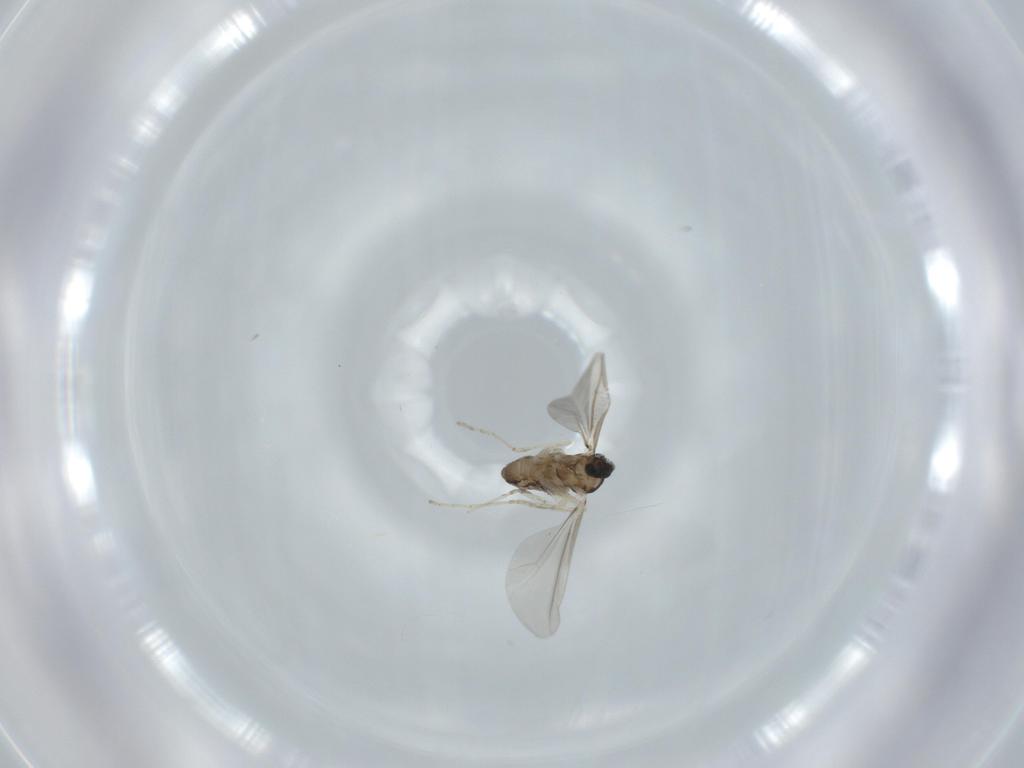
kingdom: Animalia
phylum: Arthropoda
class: Insecta
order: Diptera
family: Cecidomyiidae
